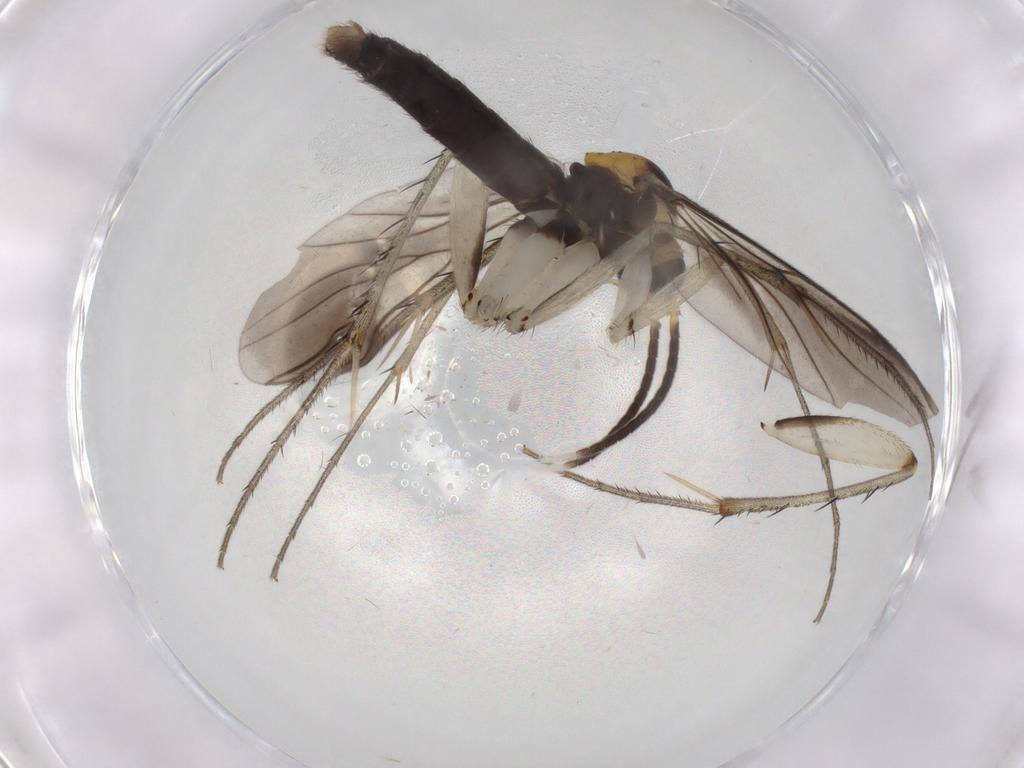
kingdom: Animalia
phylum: Arthropoda
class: Insecta
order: Diptera
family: Phoridae
